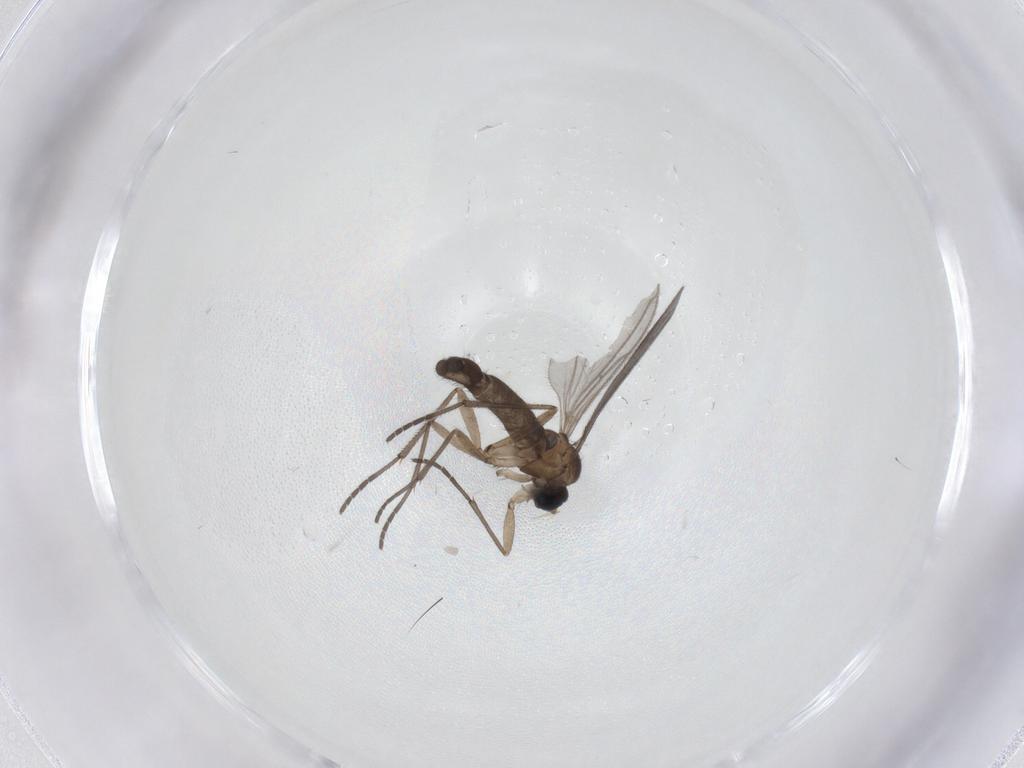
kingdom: Animalia
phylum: Arthropoda
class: Insecta
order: Diptera
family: Sciaridae
